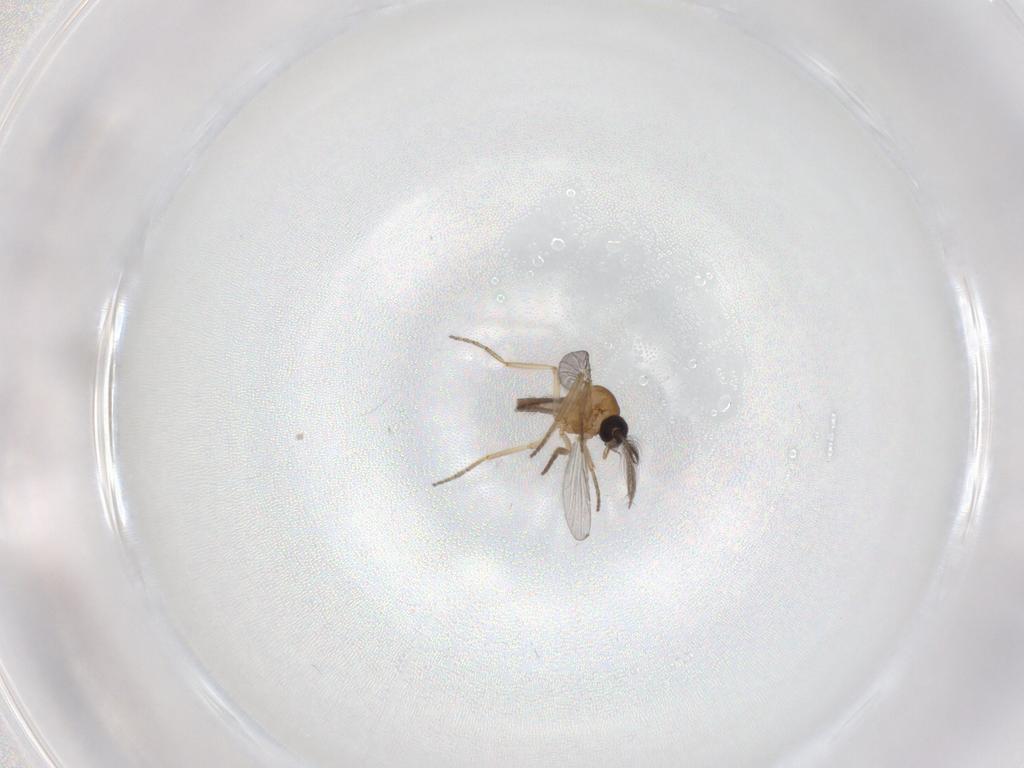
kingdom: Animalia
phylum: Arthropoda
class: Insecta
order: Diptera
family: Ceratopogonidae
